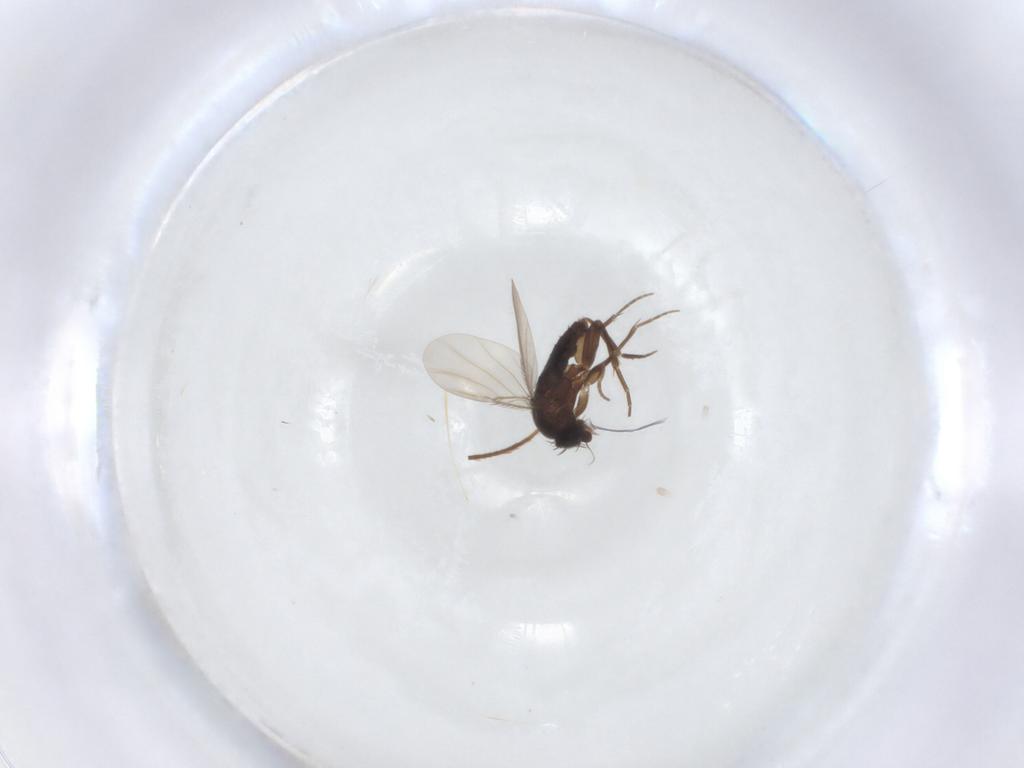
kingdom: Animalia
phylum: Arthropoda
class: Insecta
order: Diptera
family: Phoridae
